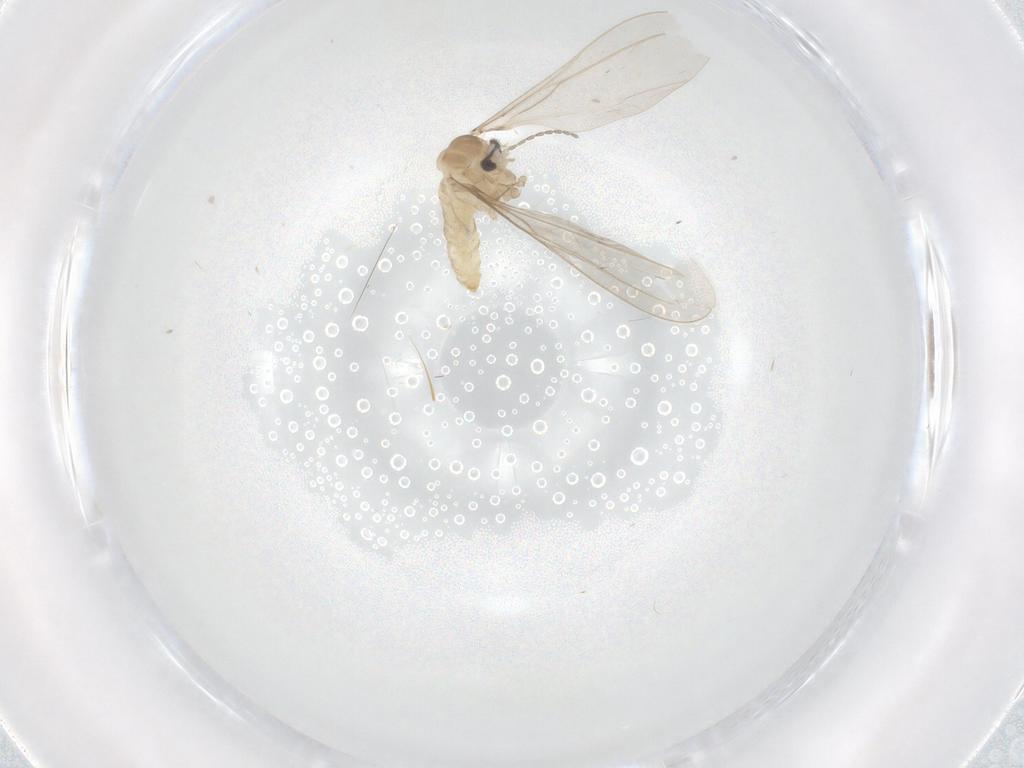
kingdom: Animalia
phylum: Arthropoda
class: Insecta
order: Diptera
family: Cecidomyiidae
